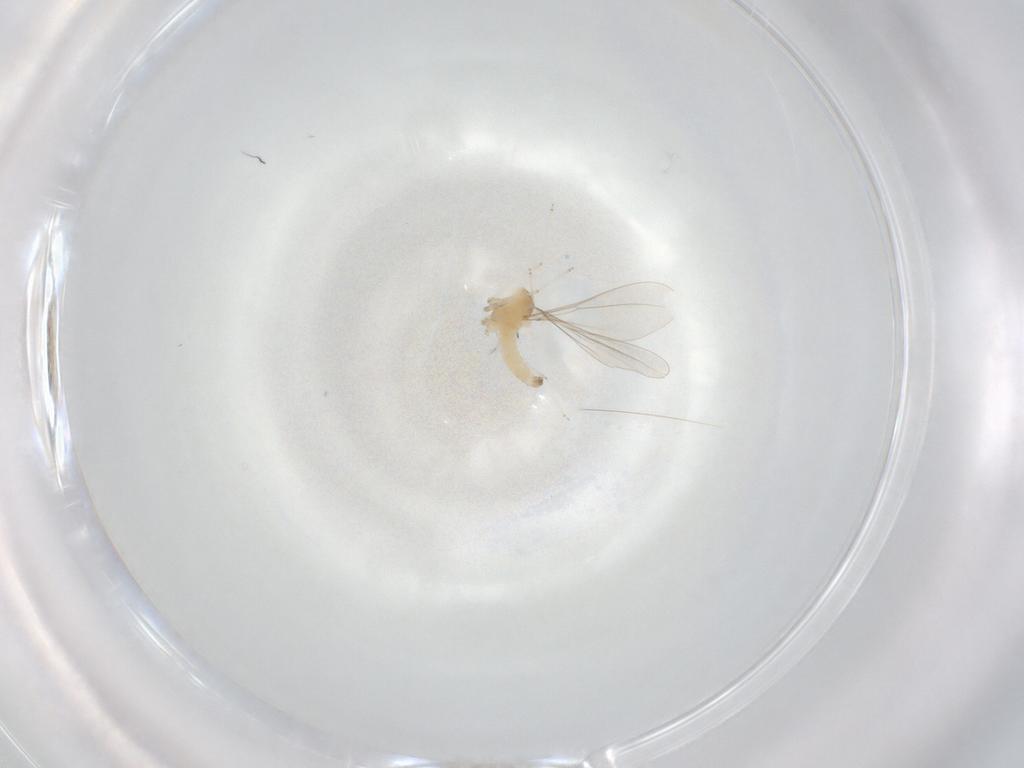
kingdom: Animalia
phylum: Arthropoda
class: Insecta
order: Diptera
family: Cecidomyiidae
